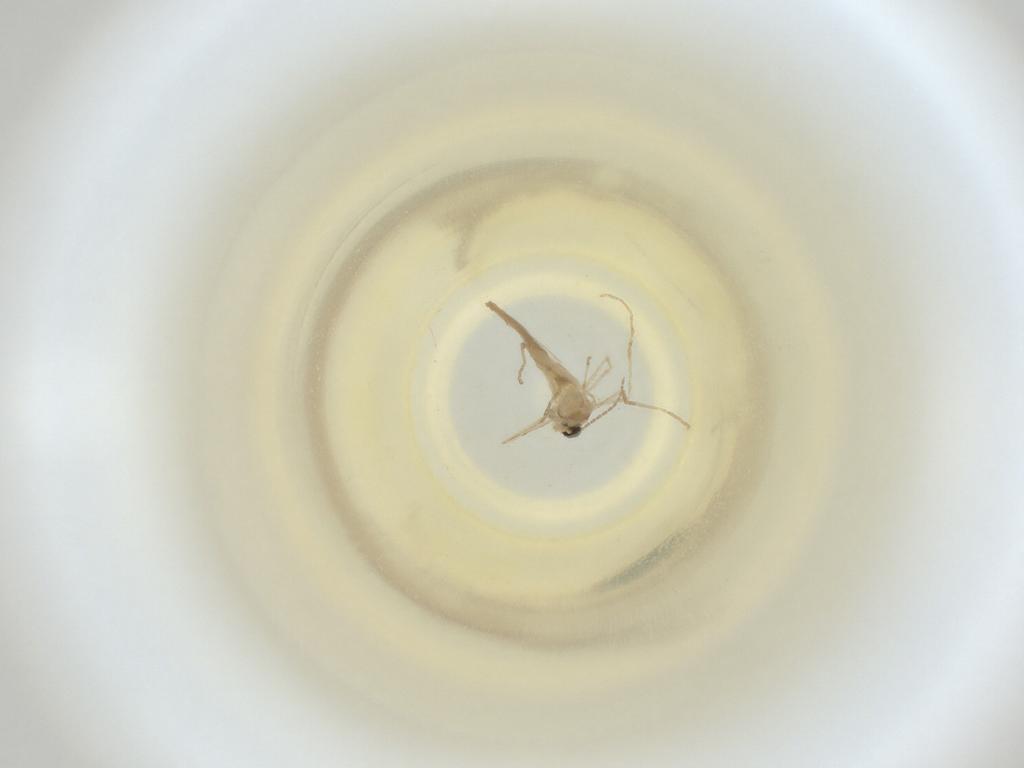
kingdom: Animalia
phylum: Arthropoda
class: Insecta
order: Diptera
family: Cecidomyiidae
